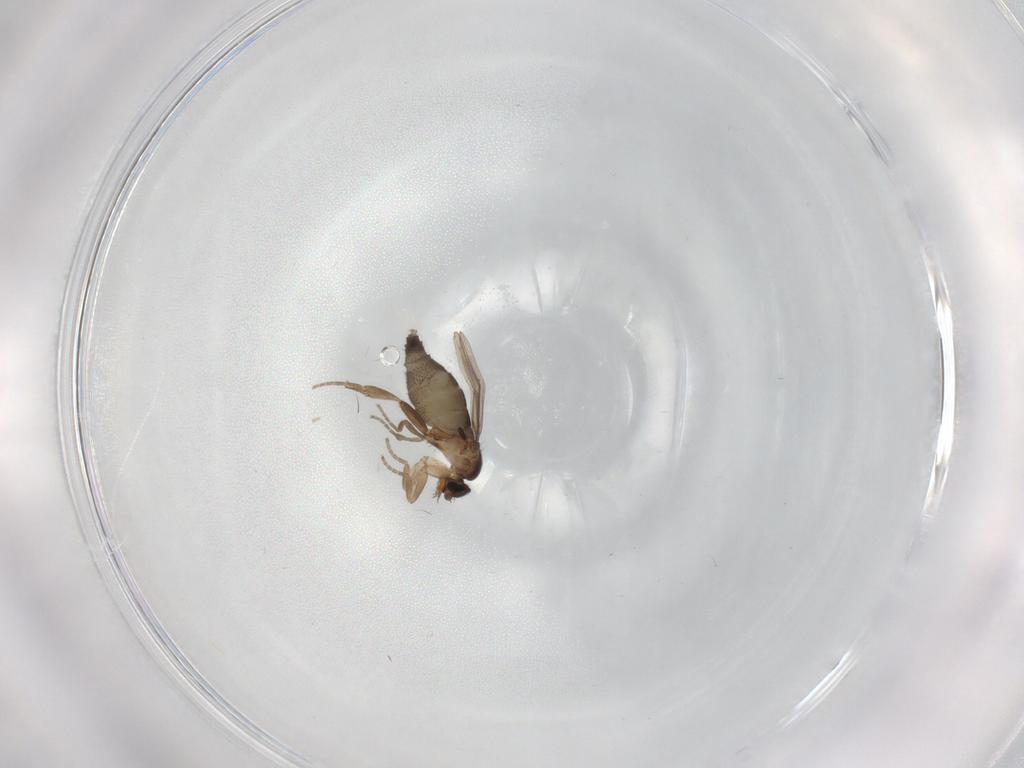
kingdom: Animalia
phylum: Arthropoda
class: Insecta
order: Diptera
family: Phoridae
